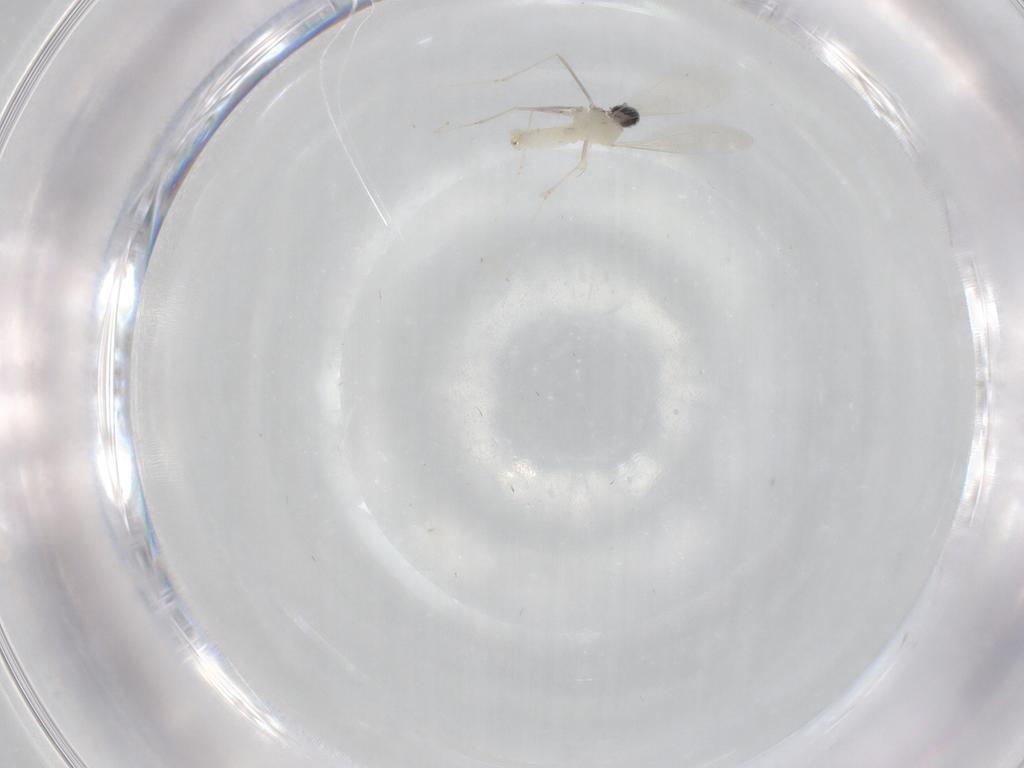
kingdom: Animalia
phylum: Arthropoda
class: Insecta
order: Diptera
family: Cecidomyiidae
